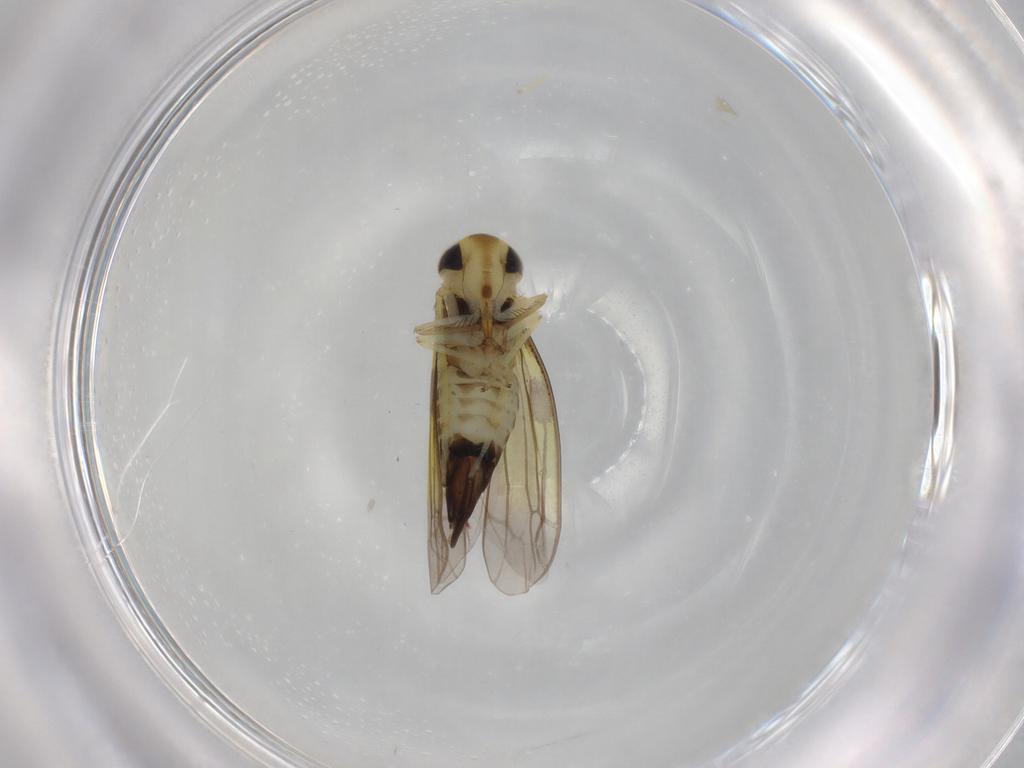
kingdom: Animalia
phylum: Arthropoda
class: Insecta
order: Hemiptera
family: Cicadellidae
